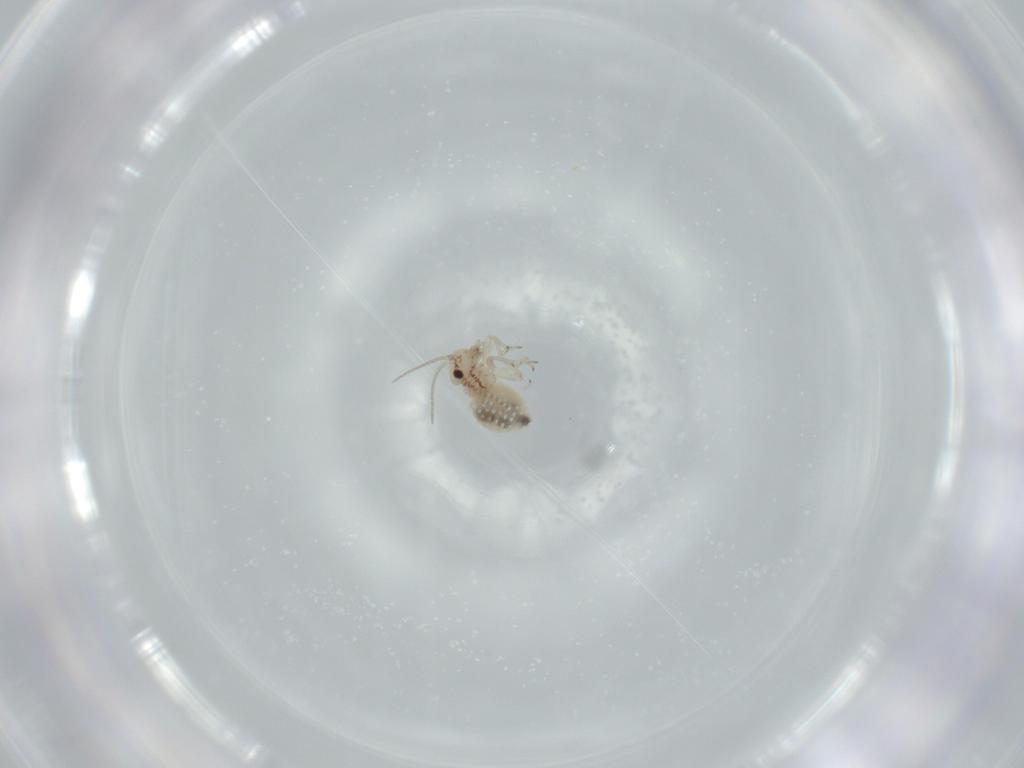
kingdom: Animalia
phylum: Arthropoda
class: Insecta
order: Psocodea
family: Lachesillidae
